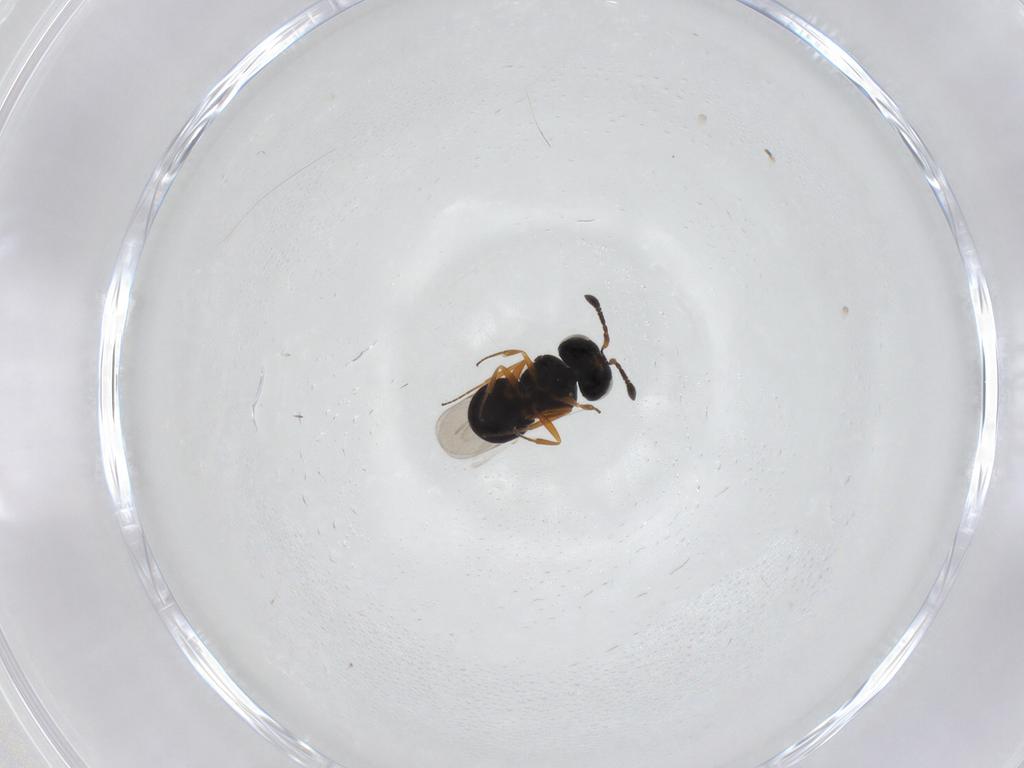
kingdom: Animalia
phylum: Arthropoda
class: Insecta
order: Hymenoptera
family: Scelionidae
